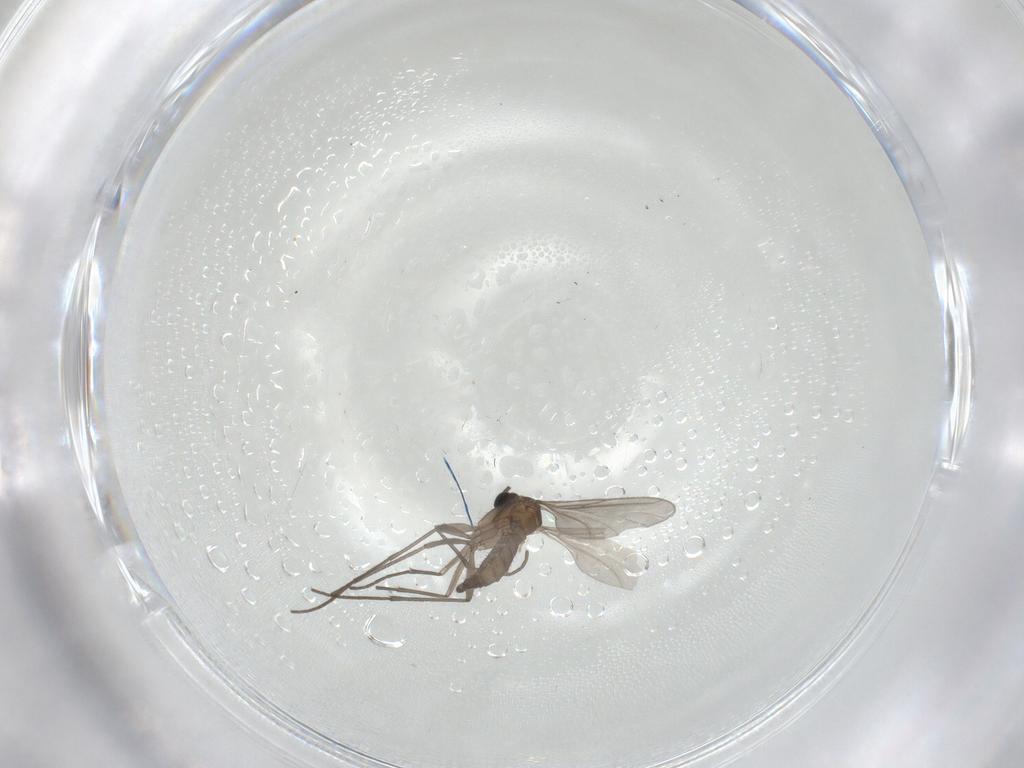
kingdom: Animalia
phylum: Arthropoda
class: Insecta
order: Diptera
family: Sciaridae
